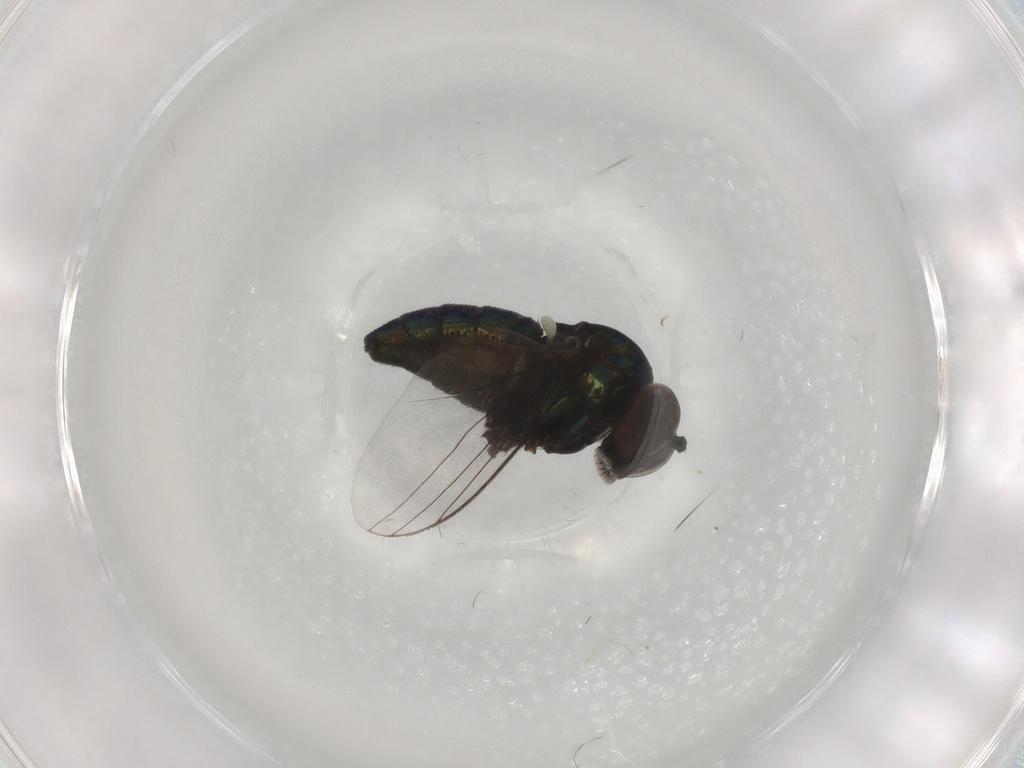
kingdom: Animalia
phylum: Arthropoda
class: Insecta
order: Diptera
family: Dolichopodidae
